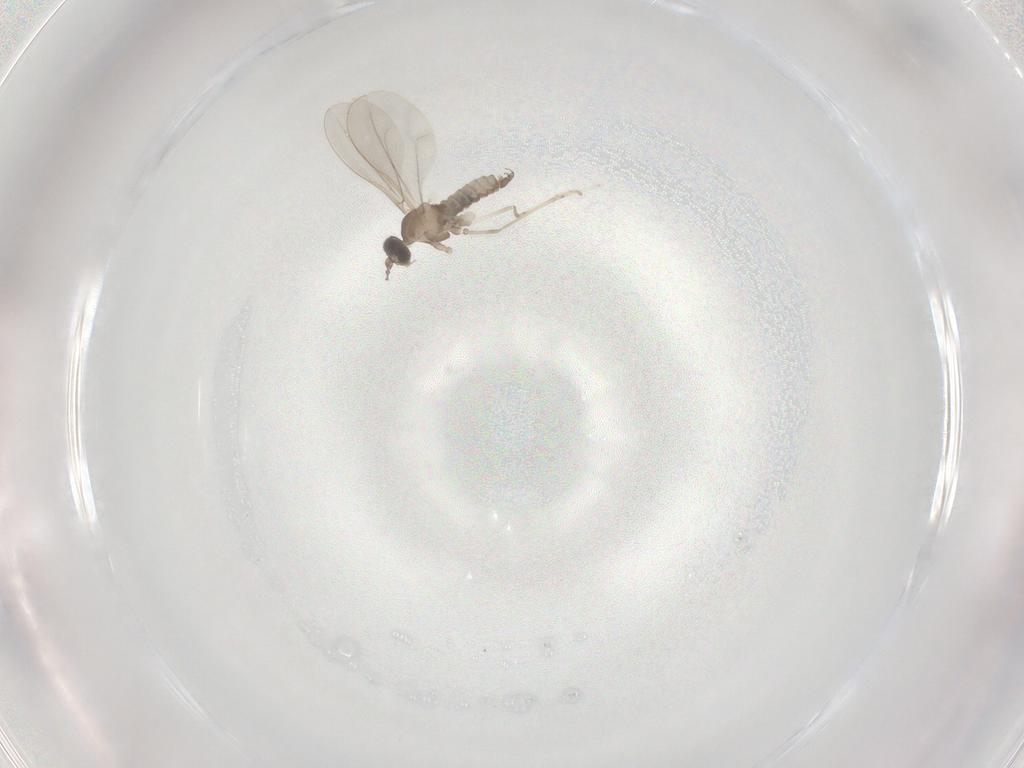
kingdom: Animalia
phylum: Arthropoda
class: Insecta
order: Diptera
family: Cecidomyiidae
